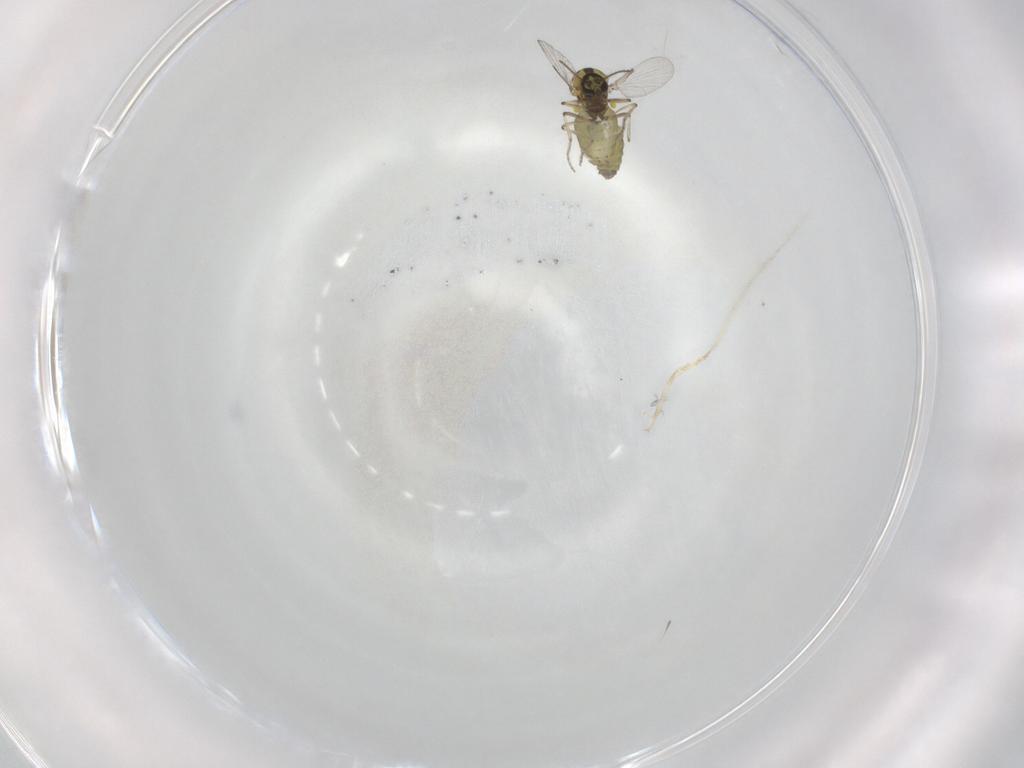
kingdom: Animalia
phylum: Arthropoda
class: Insecta
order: Diptera
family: Ceratopogonidae
